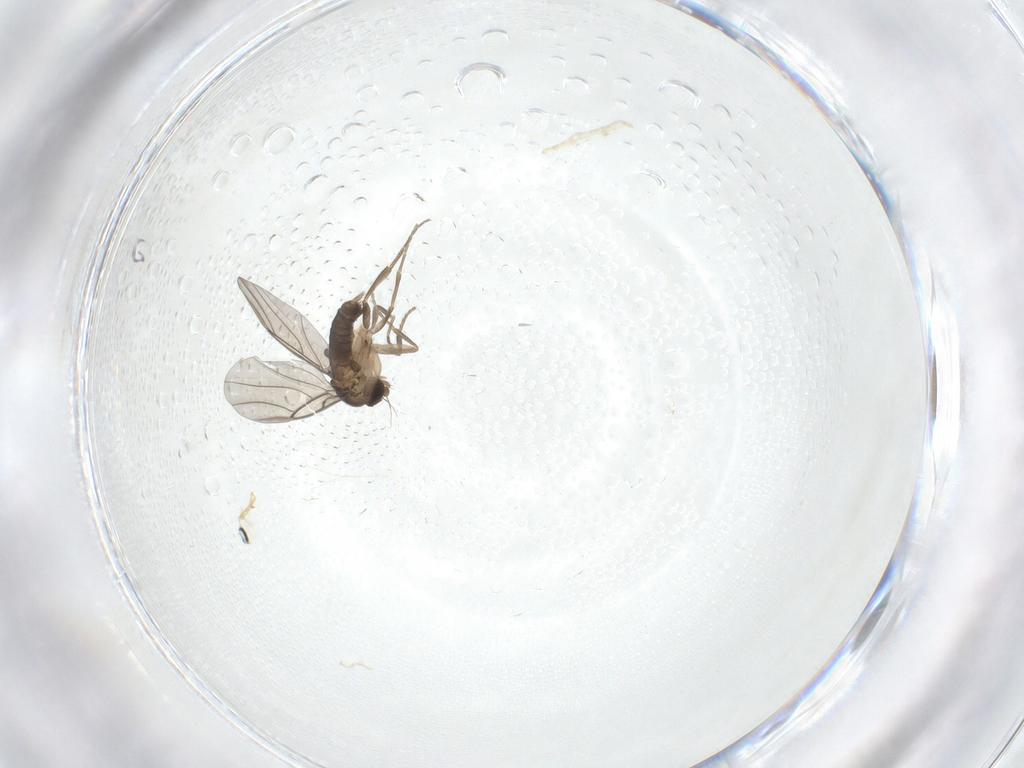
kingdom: Animalia
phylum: Arthropoda
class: Insecta
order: Diptera
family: Phoridae
